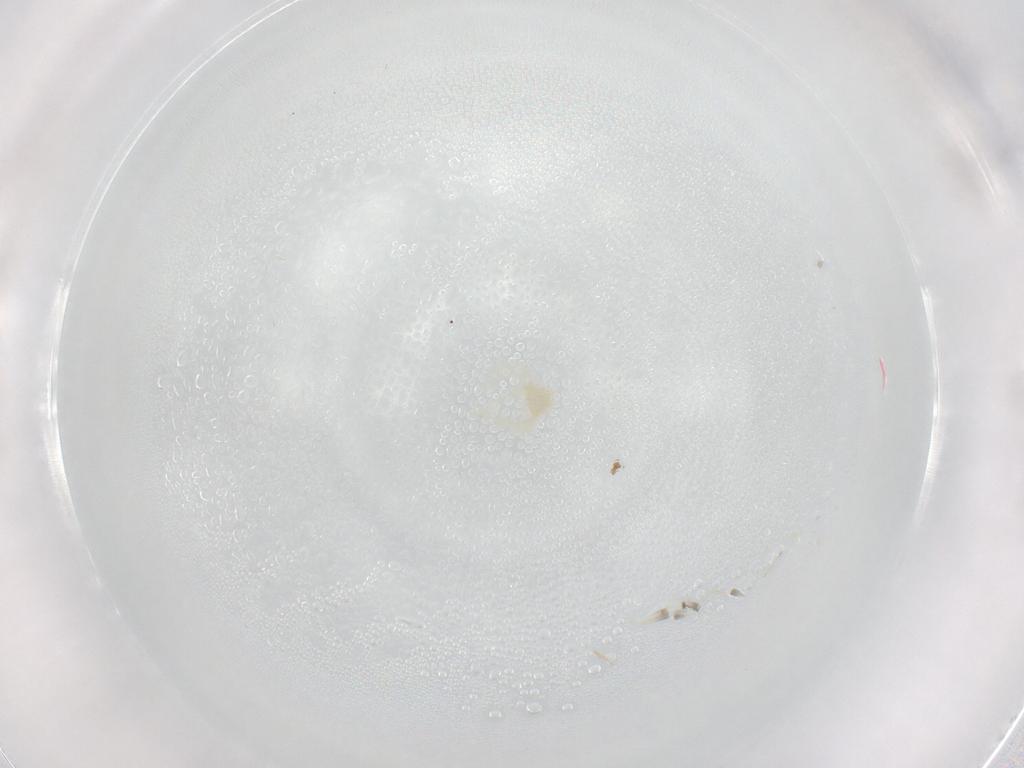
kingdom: Animalia
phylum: Arthropoda
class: Arachnida
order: Trombidiformes
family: Erythraeidae
